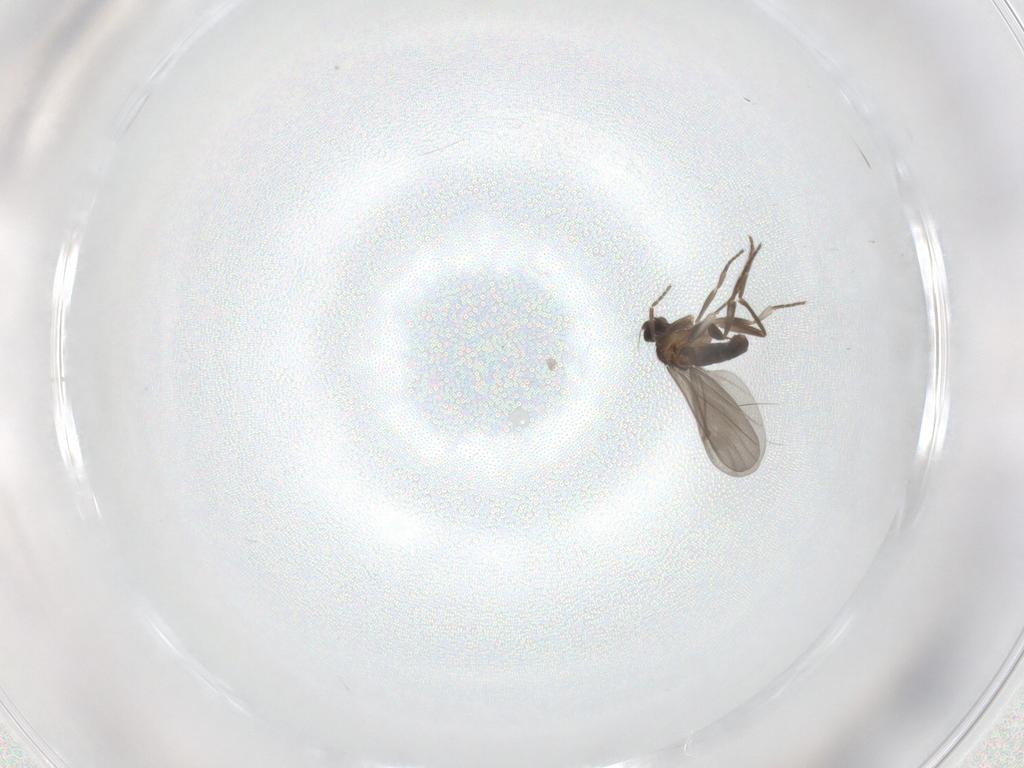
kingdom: Animalia
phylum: Arthropoda
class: Insecta
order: Diptera
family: Phoridae
